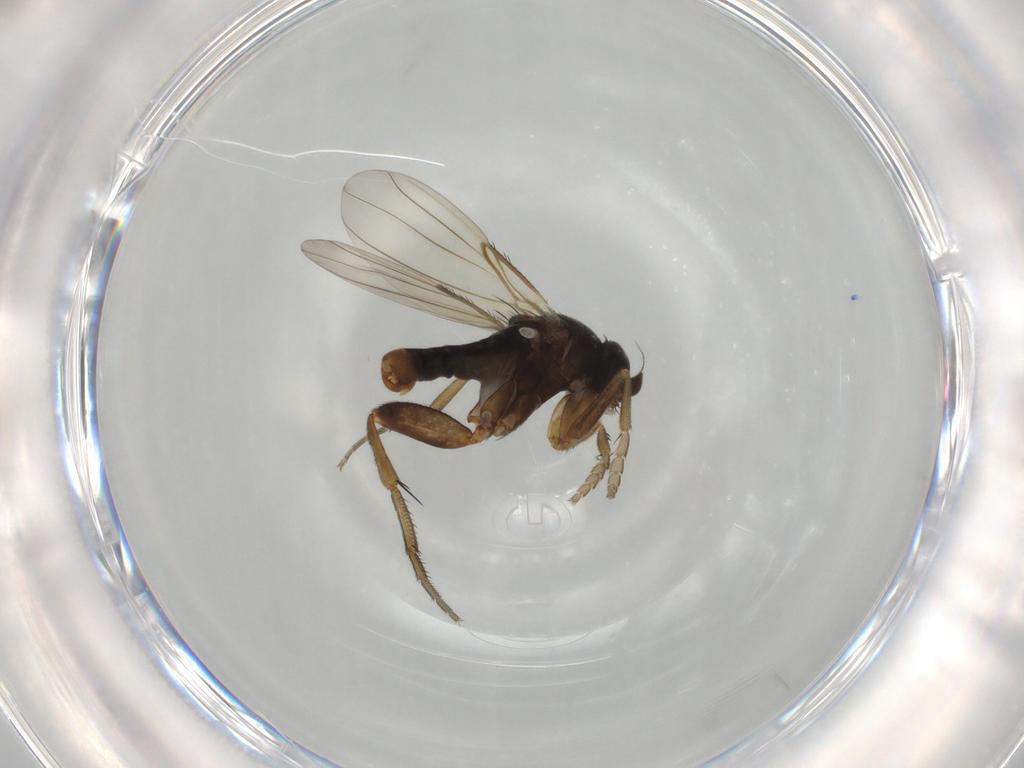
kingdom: Animalia
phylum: Arthropoda
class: Insecta
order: Diptera
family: Phoridae
